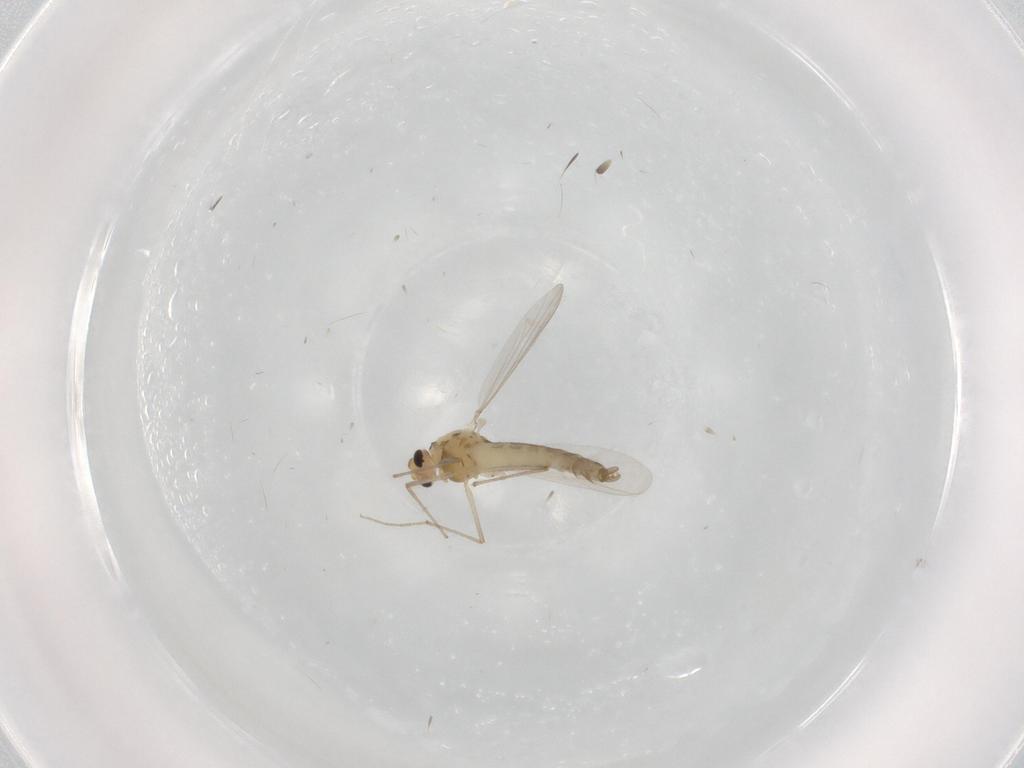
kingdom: Animalia
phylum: Arthropoda
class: Insecta
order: Diptera
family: Chironomidae
